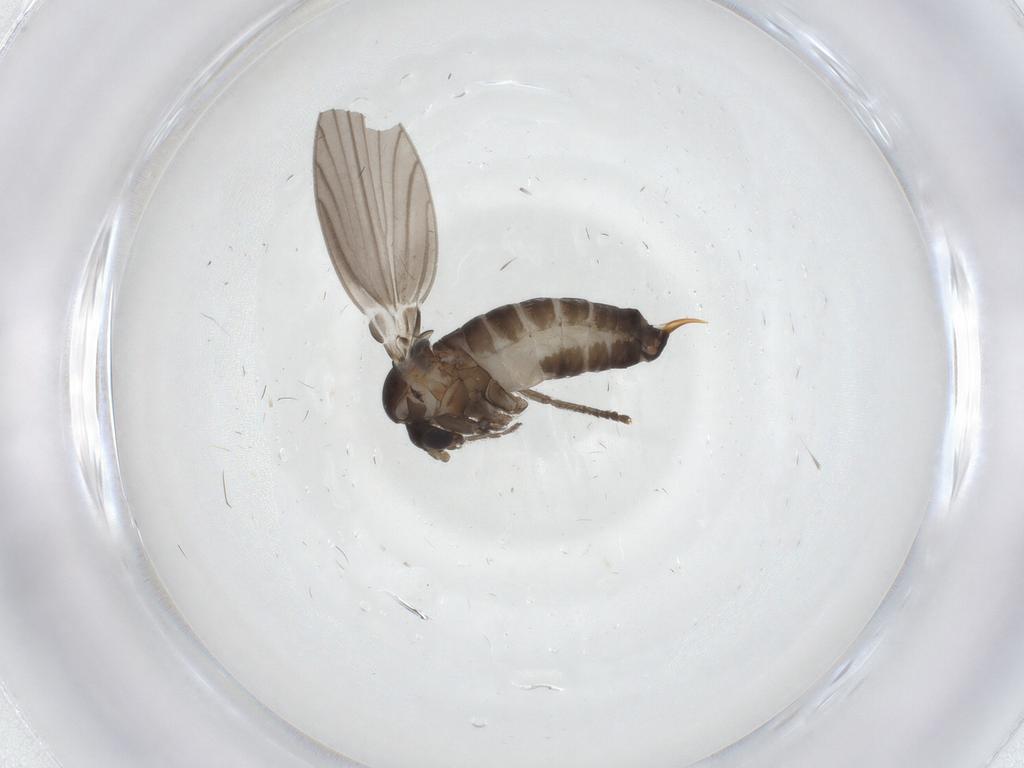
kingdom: Animalia
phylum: Arthropoda
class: Insecta
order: Diptera
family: Psychodidae
